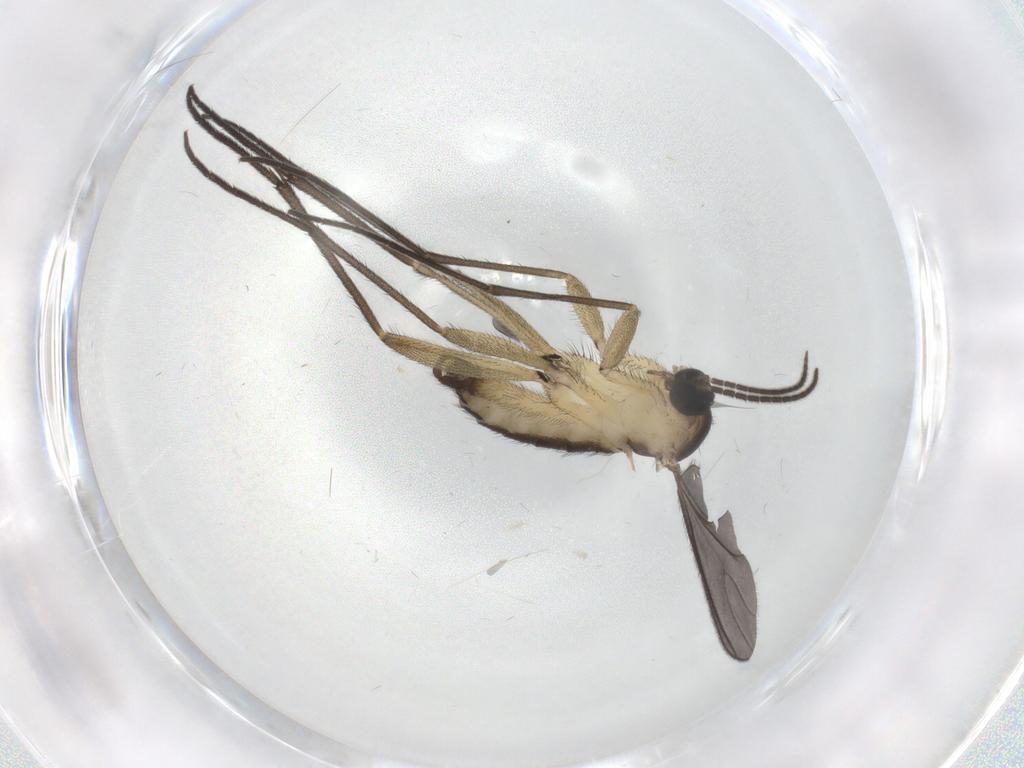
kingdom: Animalia
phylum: Arthropoda
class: Insecta
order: Diptera
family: Sciaridae
